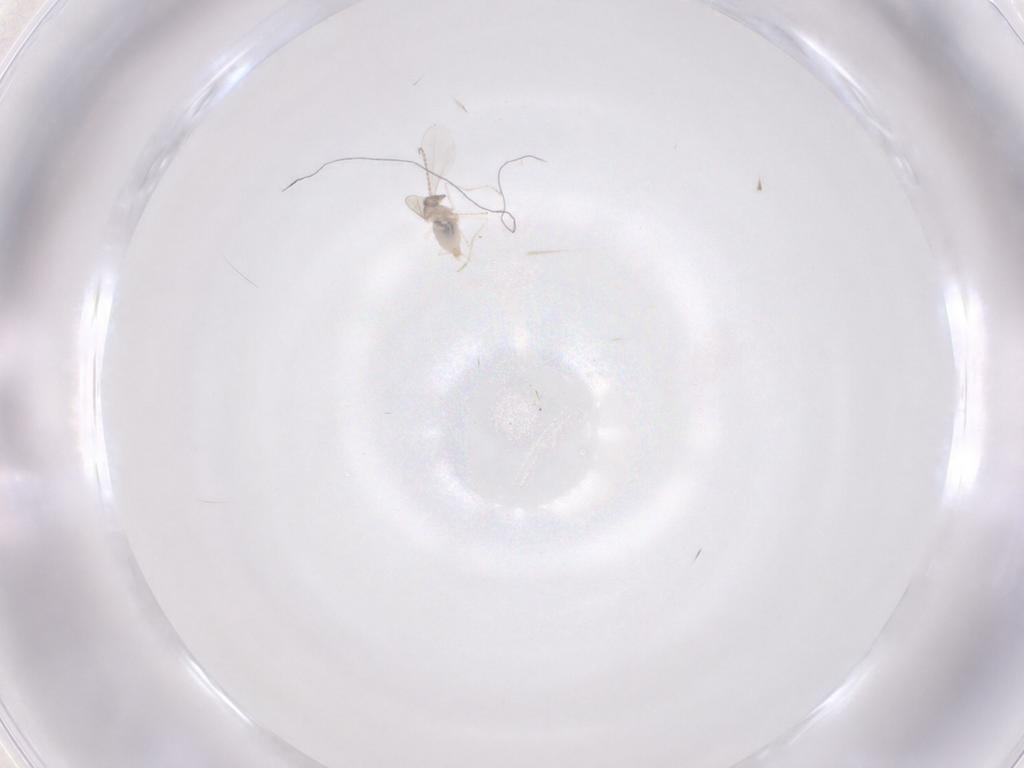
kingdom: Animalia
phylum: Arthropoda
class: Insecta
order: Diptera
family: Cecidomyiidae
